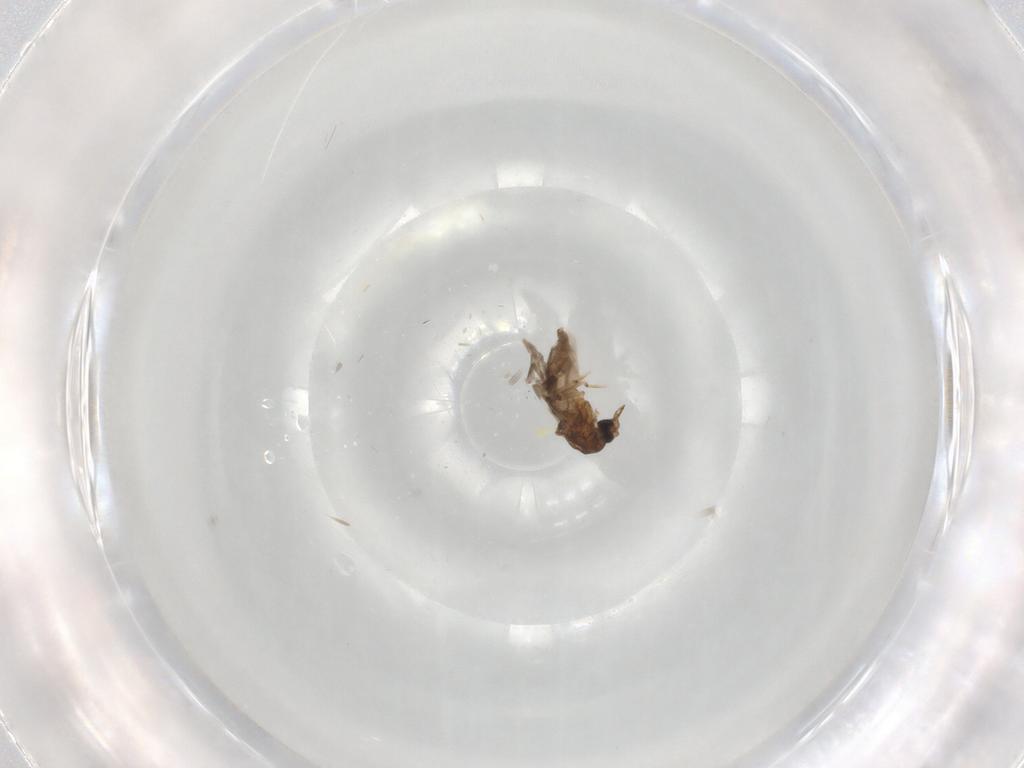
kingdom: Animalia
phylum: Arthropoda
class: Insecta
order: Diptera
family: Ceratopogonidae
